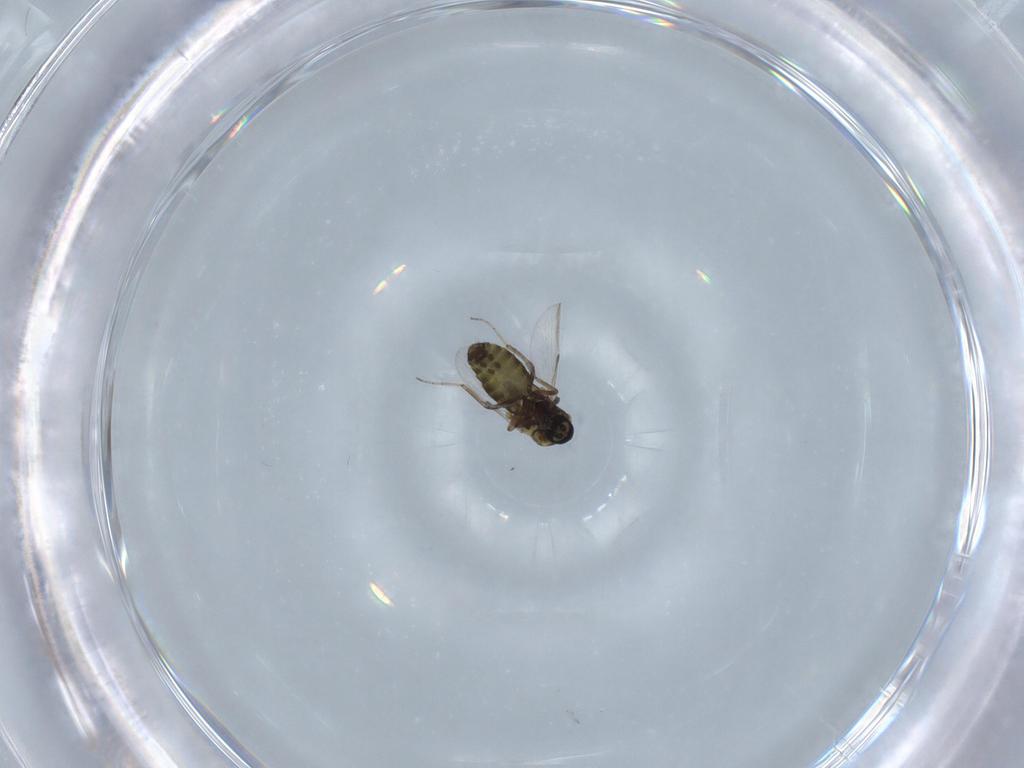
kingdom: Animalia
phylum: Arthropoda
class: Insecta
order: Diptera
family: Ceratopogonidae
